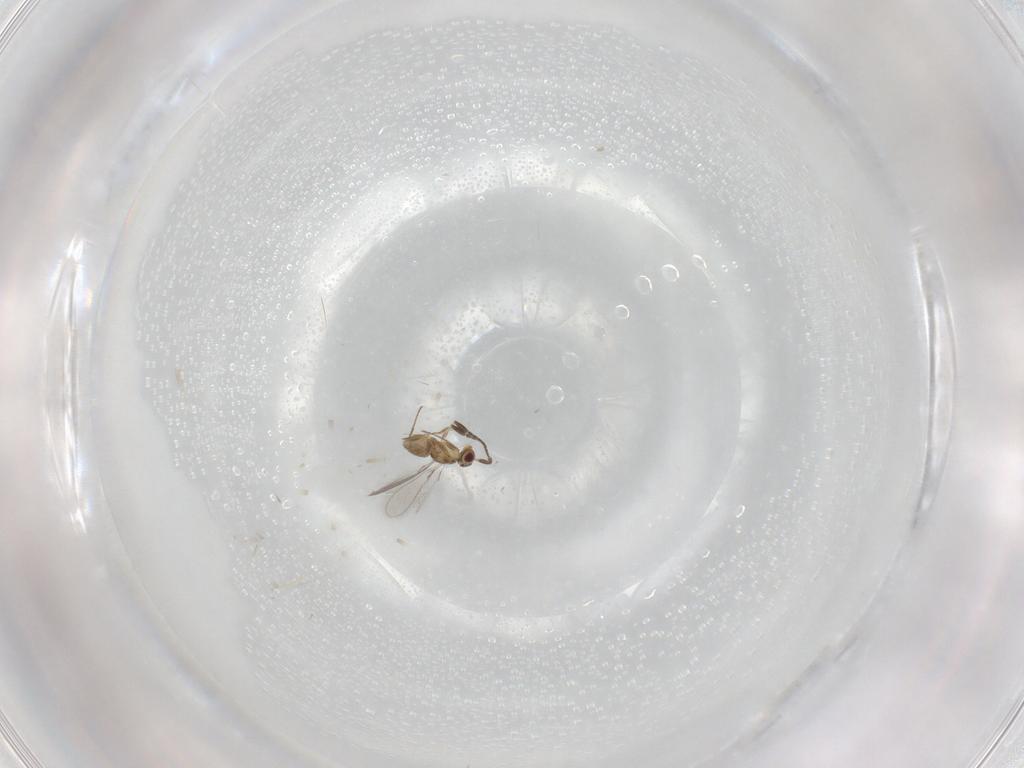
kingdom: Animalia
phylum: Arthropoda
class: Insecta
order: Hymenoptera
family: Mymaridae
